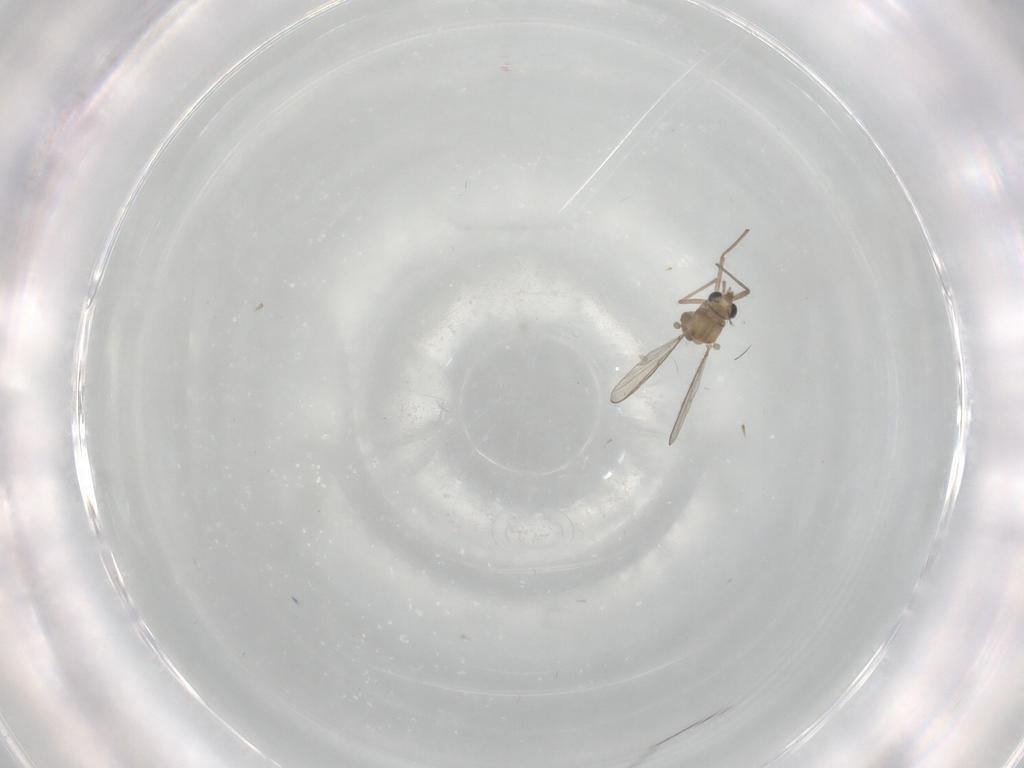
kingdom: Animalia
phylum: Arthropoda
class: Insecta
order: Diptera
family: Chironomidae
